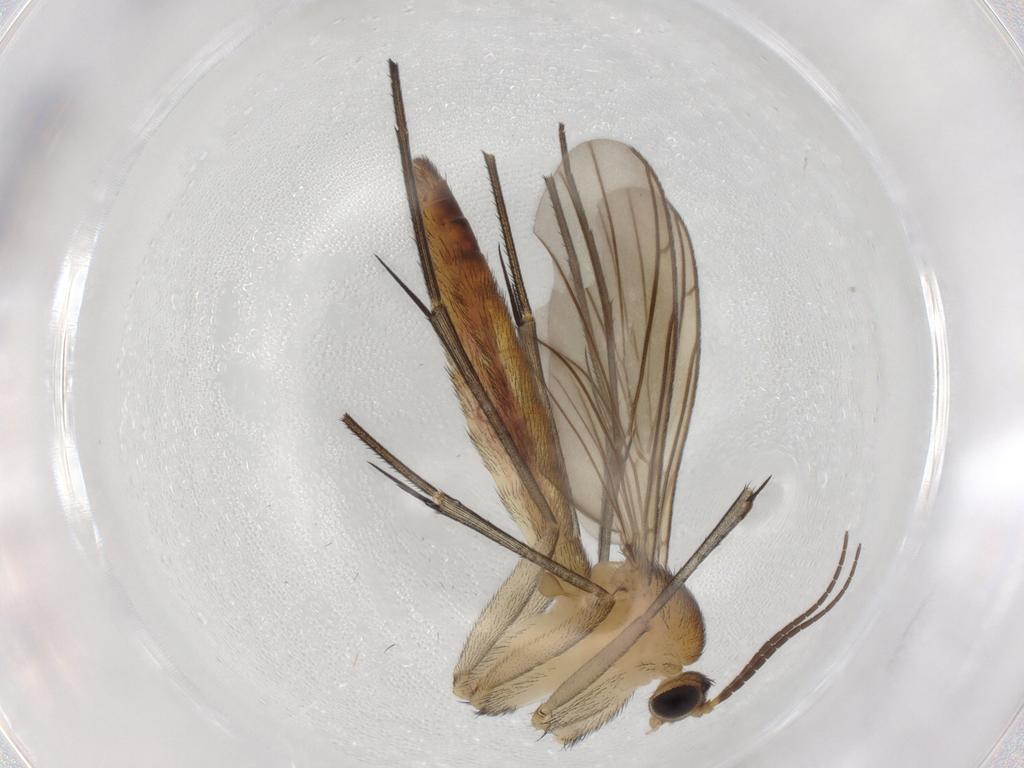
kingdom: Animalia
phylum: Arthropoda
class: Insecta
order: Diptera
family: Keroplatidae
